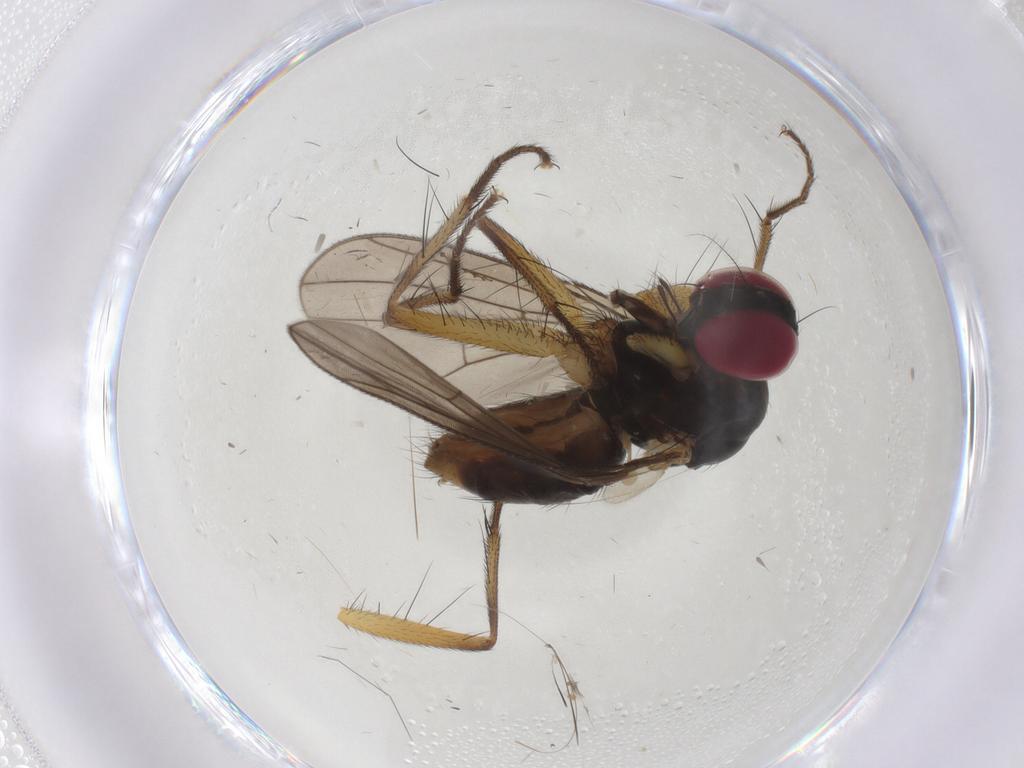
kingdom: Animalia
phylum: Arthropoda
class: Insecta
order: Diptera
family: Anthomyiidae
